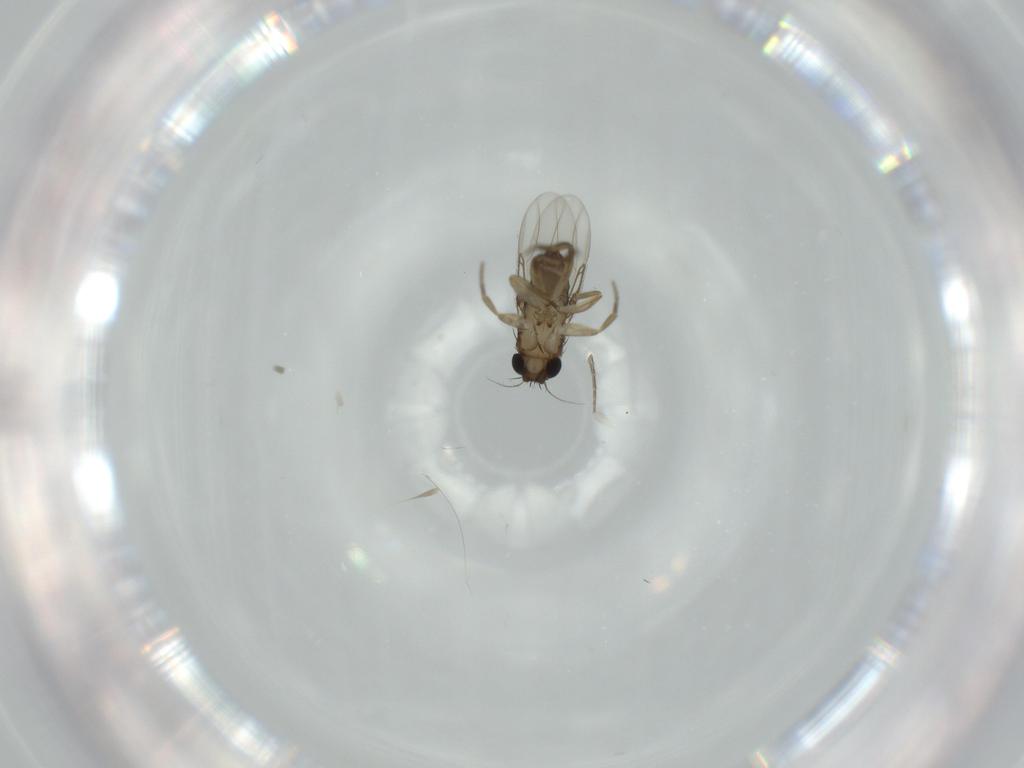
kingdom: Animalia
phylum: Arthropoda
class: Insecta
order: Diptera
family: Phoridae
